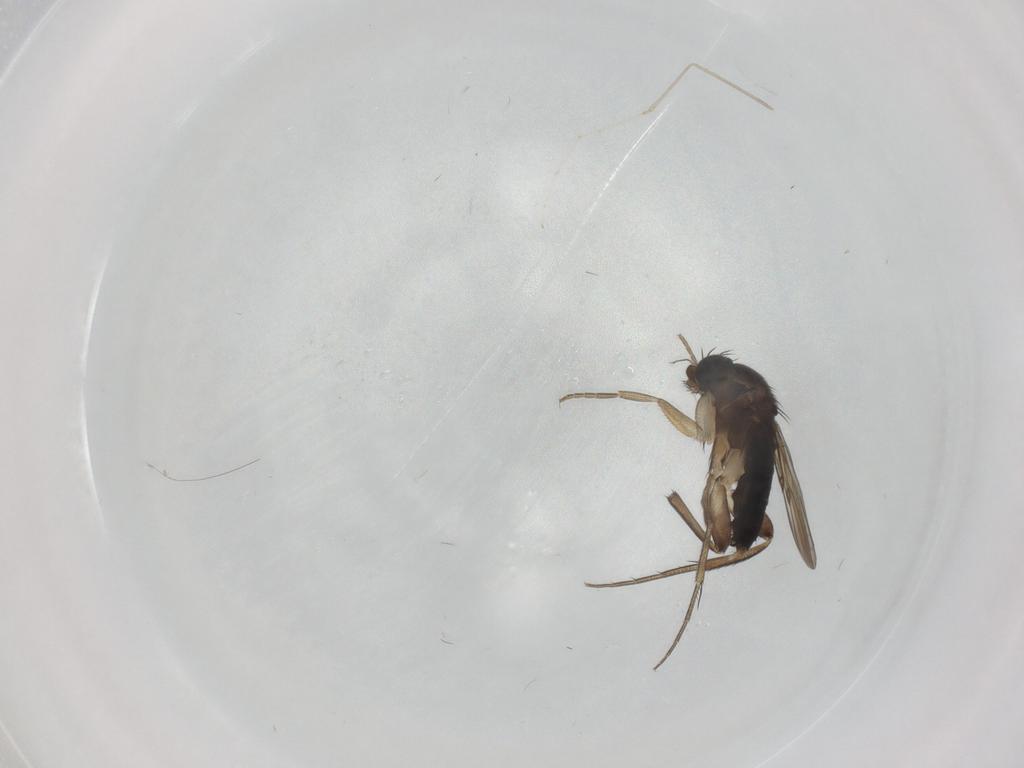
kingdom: Animalia
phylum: Arthropoda
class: Insecta
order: Diptera
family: Phoridae
